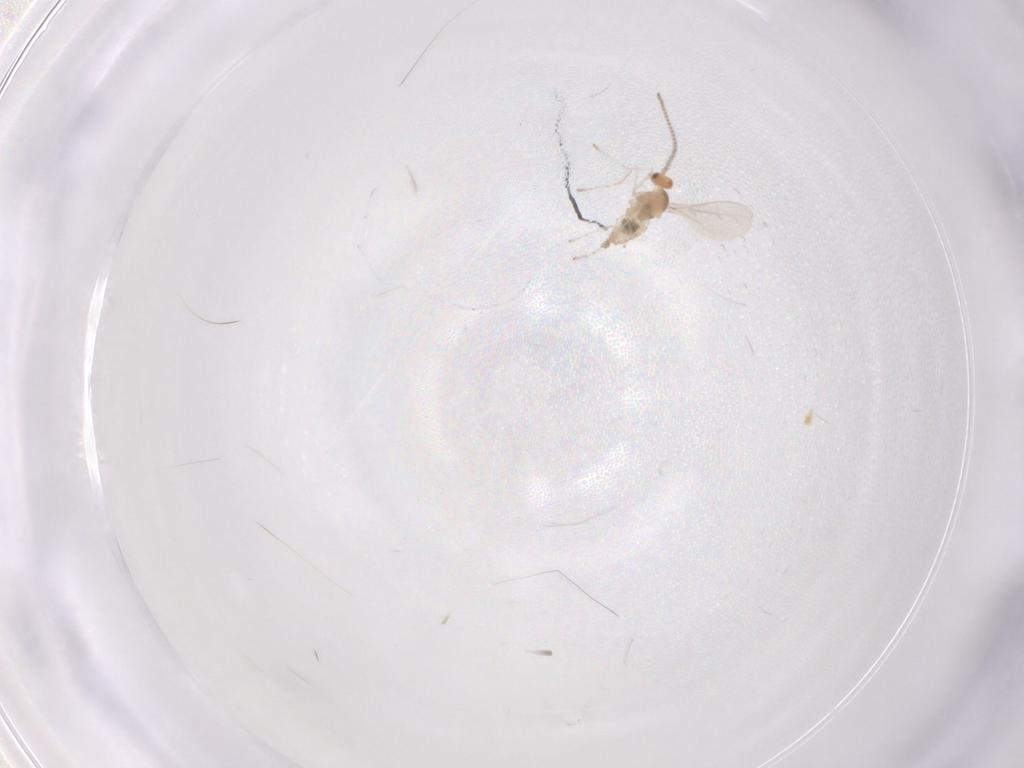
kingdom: Animalia
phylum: Arthropoda
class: Insecta
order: Diptera
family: Cecidomyiidae
